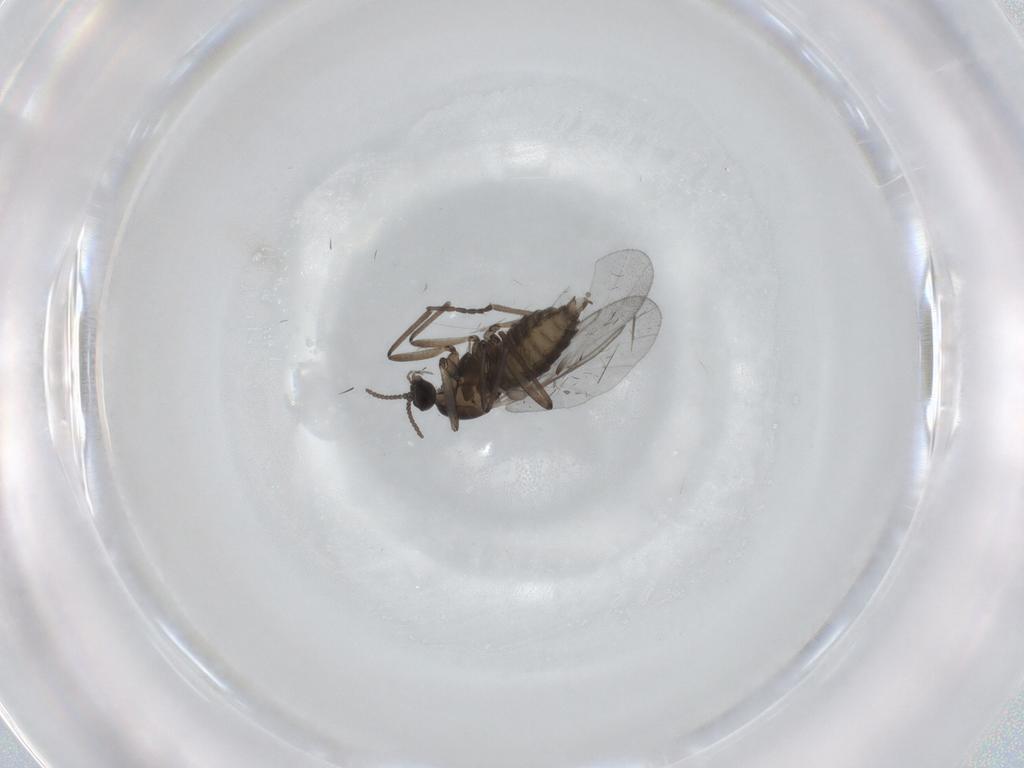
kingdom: Animalia
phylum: Arthropoda
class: Insecta
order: Diptera
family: Cecidomyiidae
